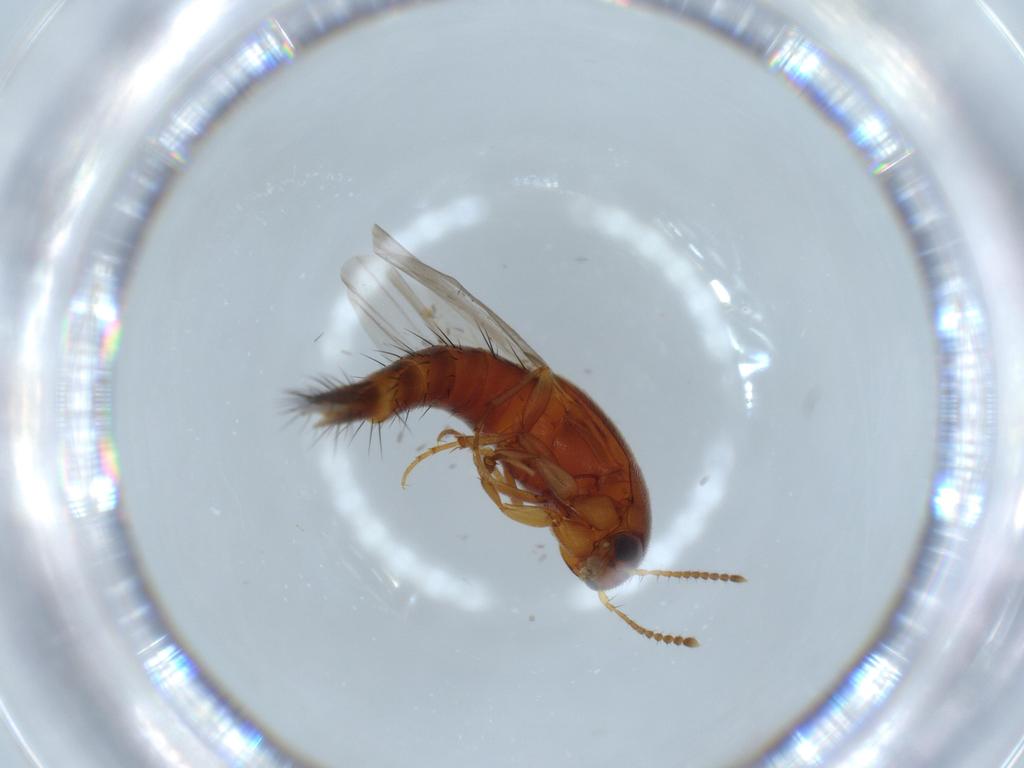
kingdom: Animalia
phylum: Arthropoda
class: Insecta
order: Coleoptera
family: Staphylinidae
